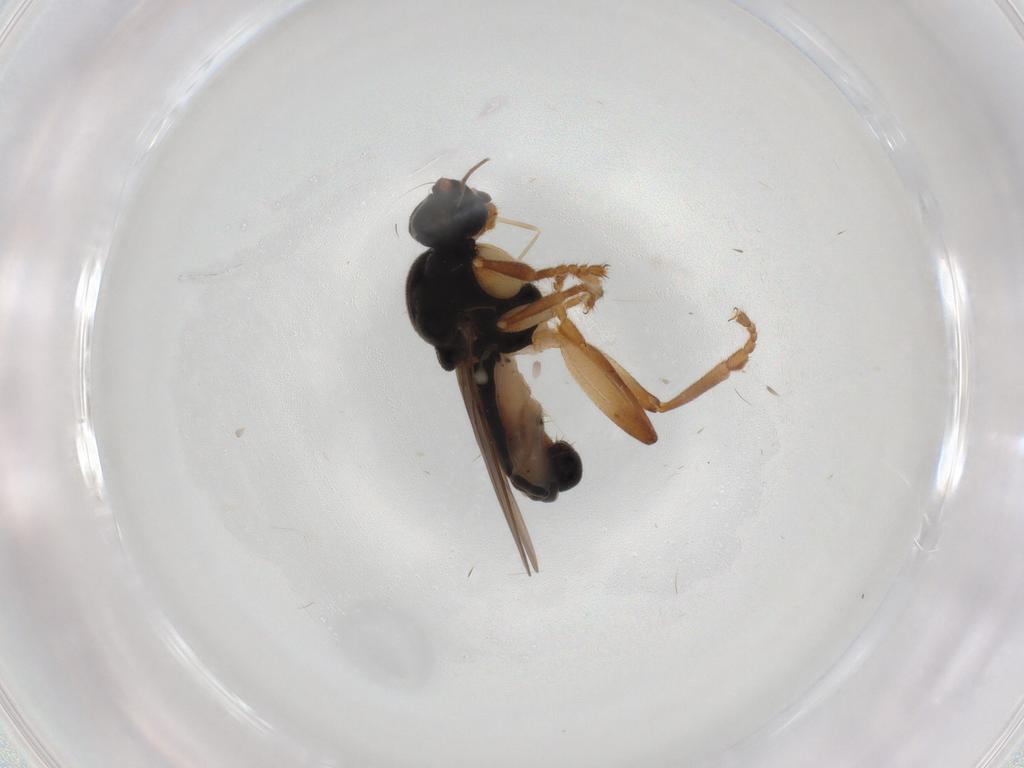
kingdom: Animalia
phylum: Arthropoda
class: Insecta
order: Diptera
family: Sphaeroceridae
